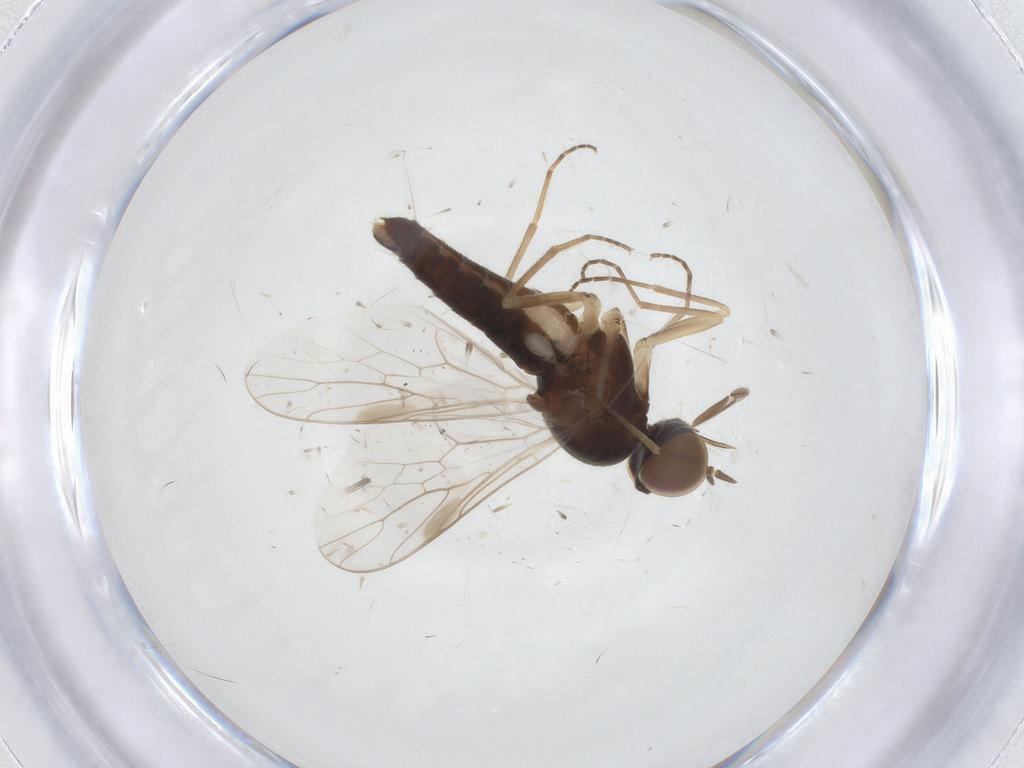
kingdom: Animalia
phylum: Arthropoda
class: Insecta
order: Diptera
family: Scenopinidae
